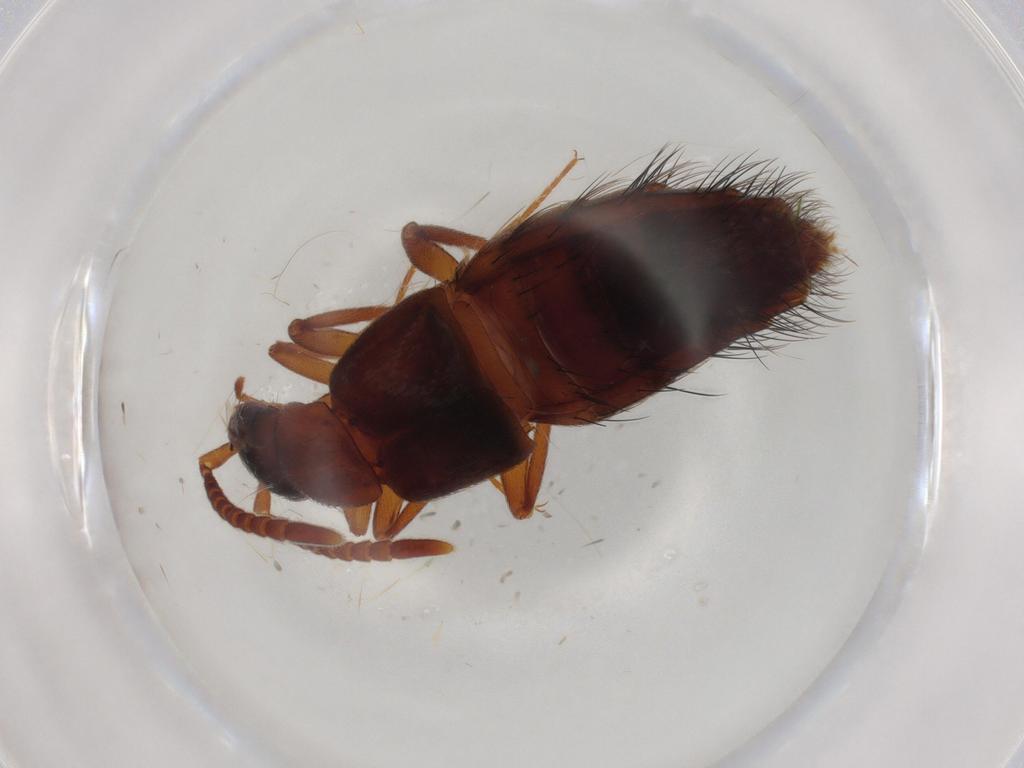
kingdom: Animalia
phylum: Arthropoda
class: Insecta
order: Coleoptera
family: Staphylinidae
